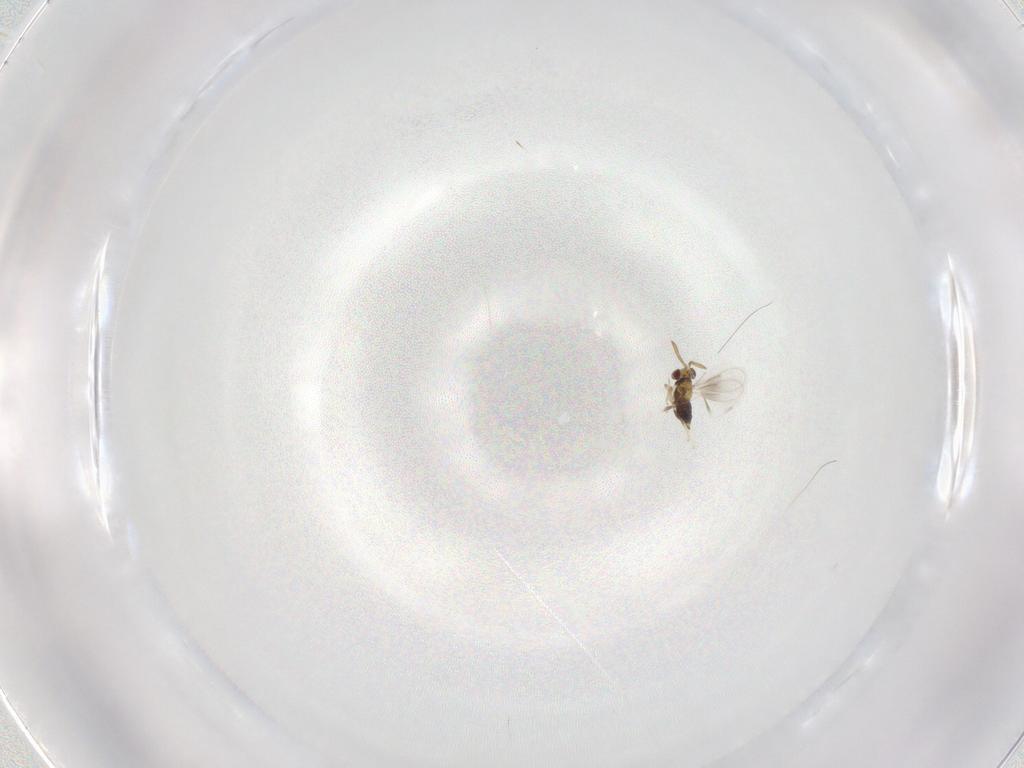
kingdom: Animalia
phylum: Arthropoda
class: Insecta
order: Hymenoptera
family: Aphelinidae
